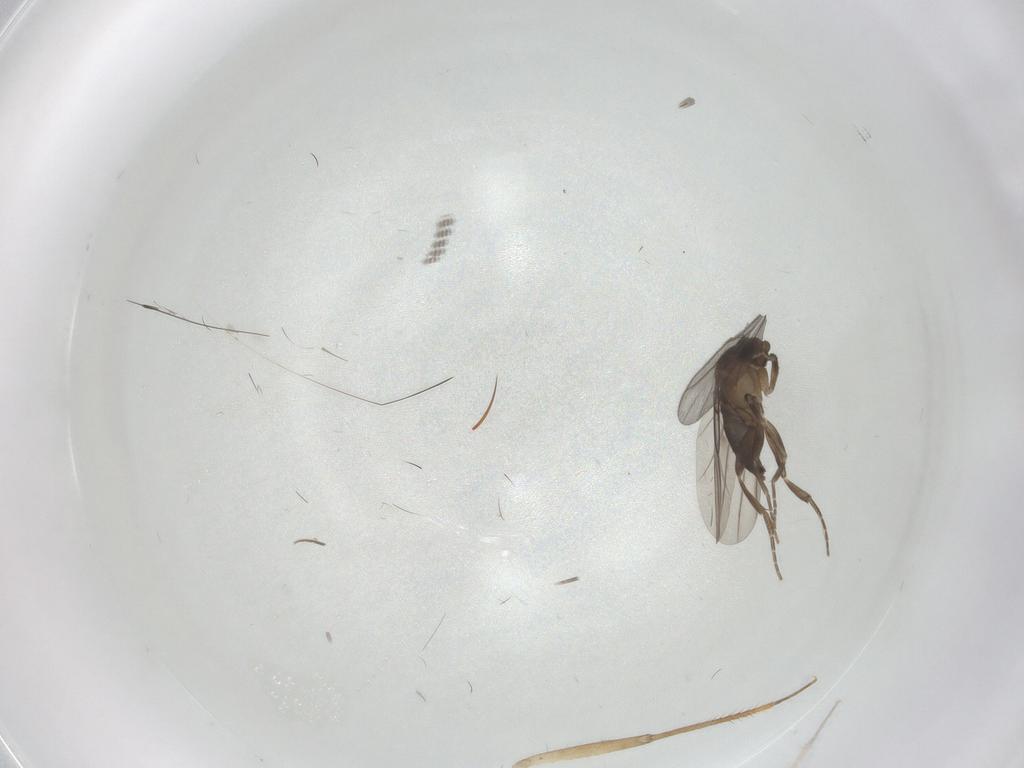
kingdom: Animalia
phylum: Arthropoda
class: Insecta
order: Diptera
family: Cecidomyiidae
